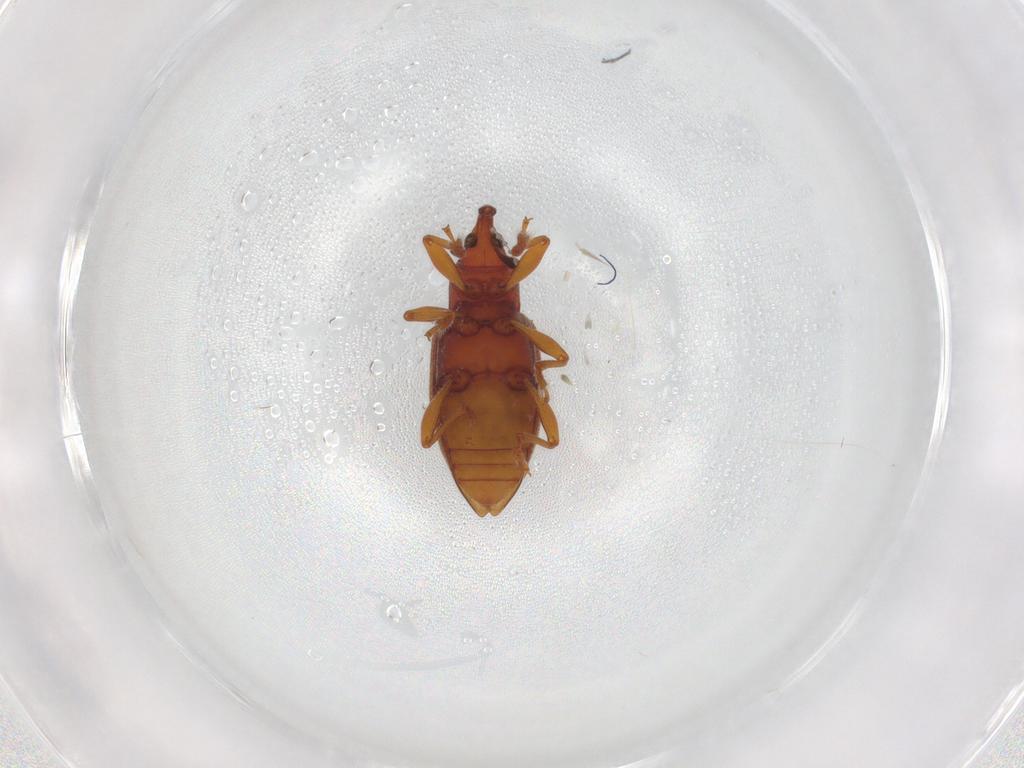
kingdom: Animalia
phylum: Arthropoda
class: Insecta
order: Coleoptera
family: Curculionidae
